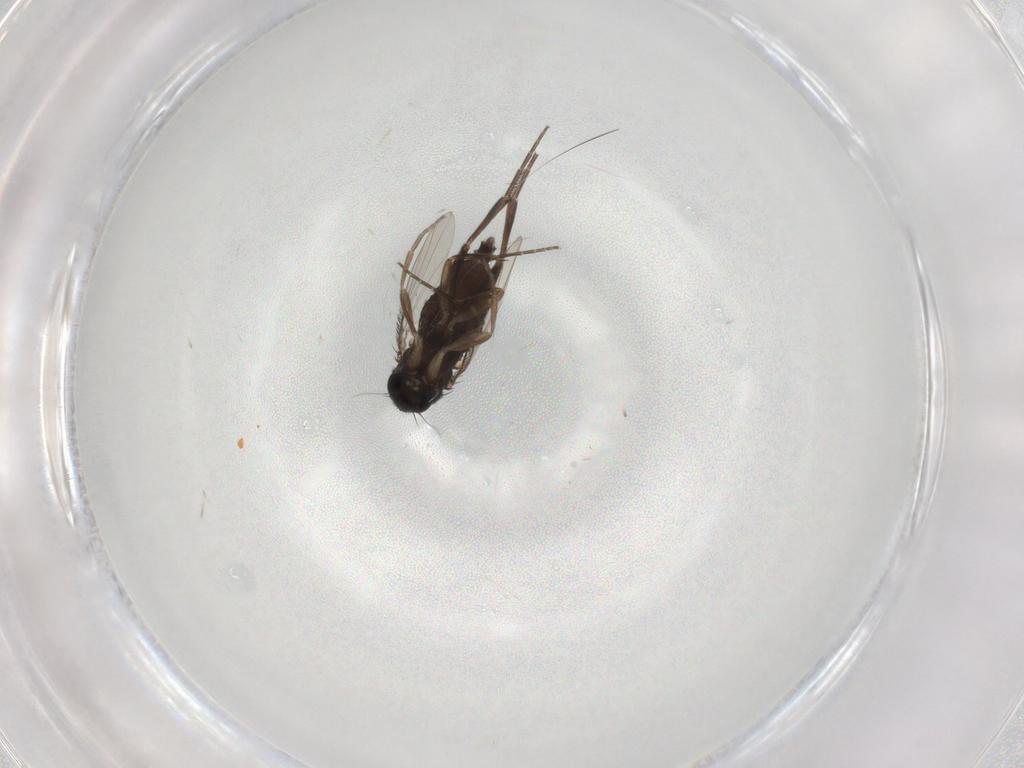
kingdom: Animalia
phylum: Arthropoda
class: Insecta
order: Diptera
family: Phoridae
